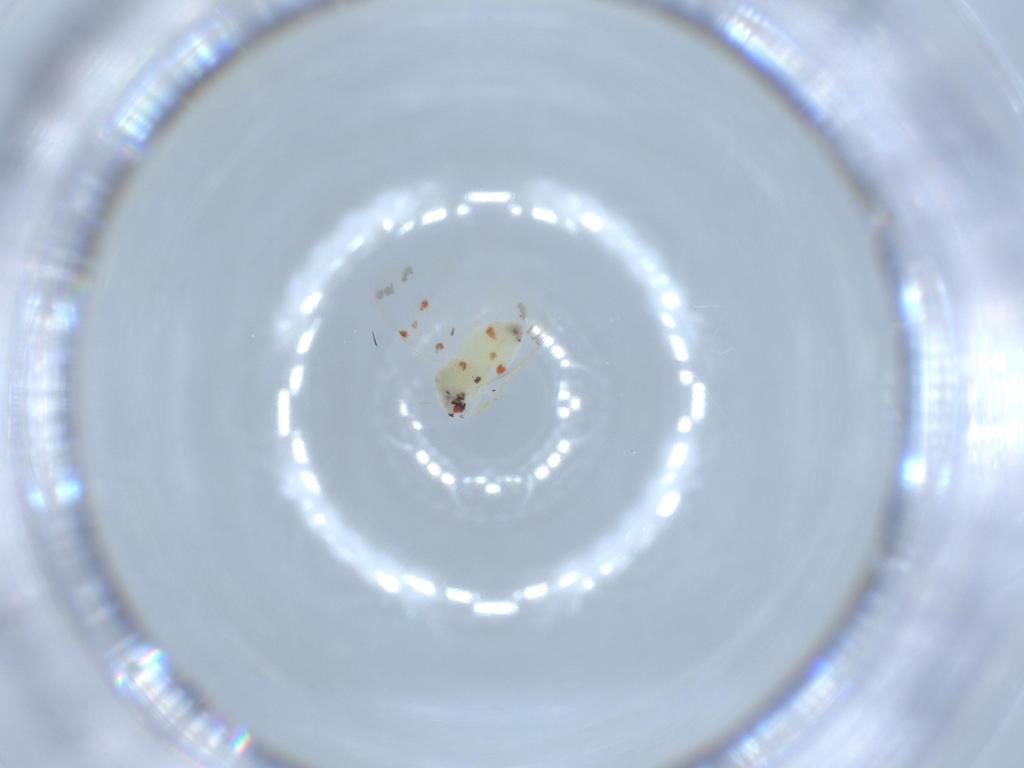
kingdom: Animalia
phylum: Arthropoda
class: Insecta
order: Hemiptera
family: Aleyrodidae
